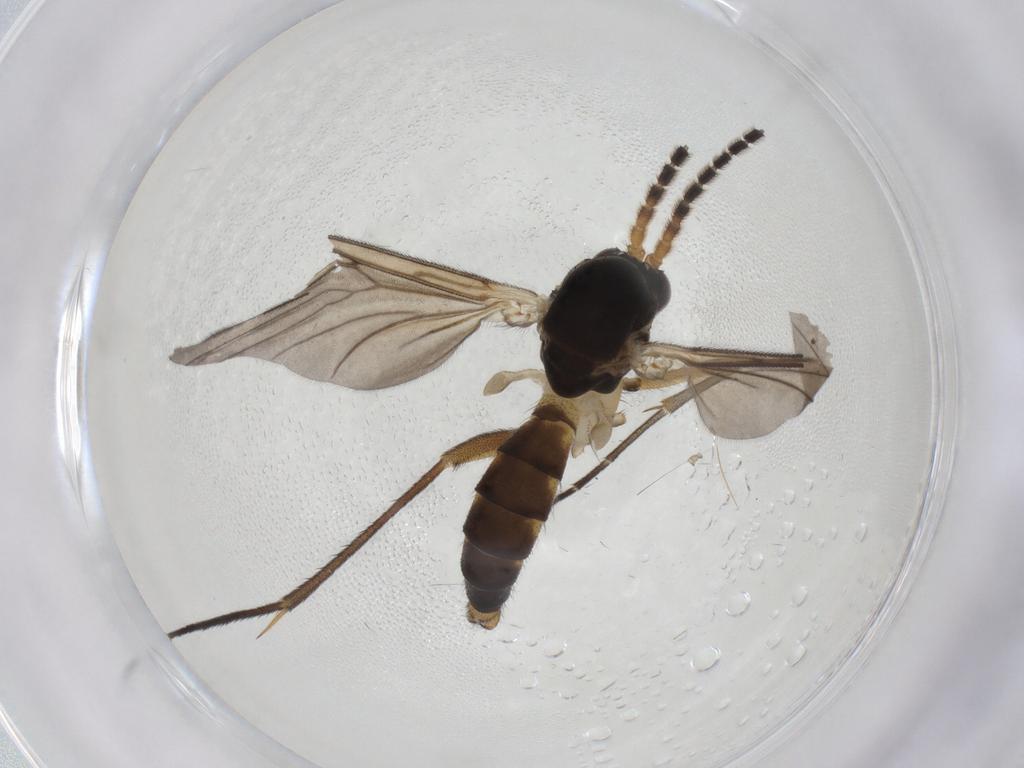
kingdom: Animalia
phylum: Arthropoda
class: Insecta
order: Diptera
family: Periscelididae
